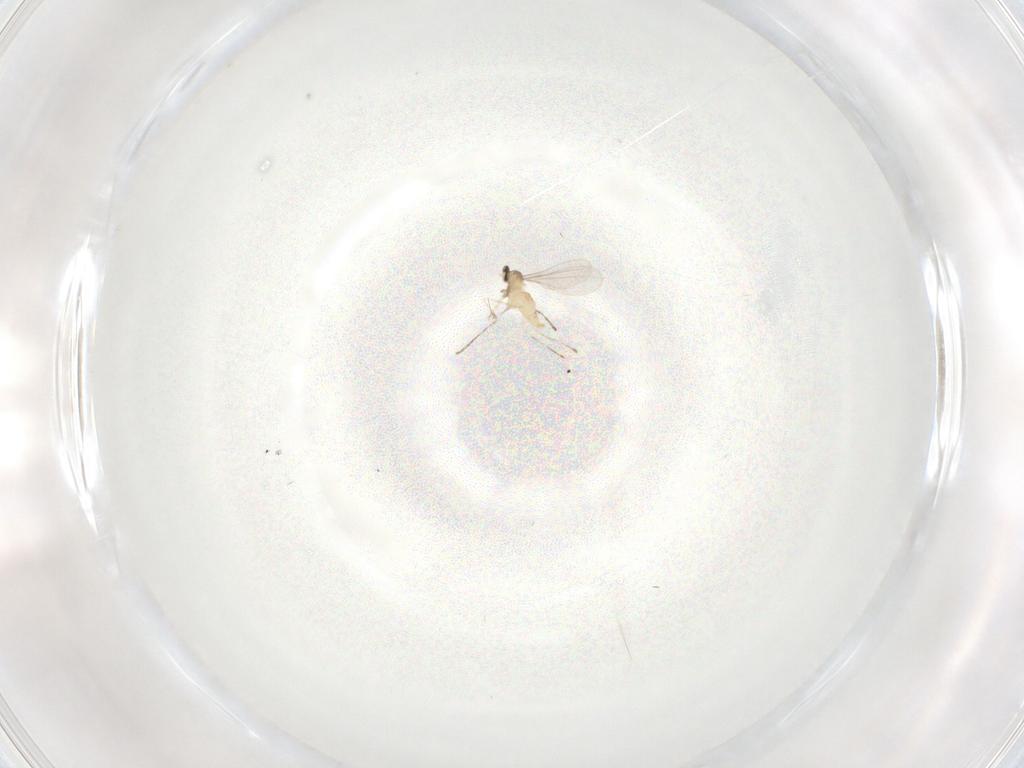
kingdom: Animalia
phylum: Arthropoda
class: Insecta
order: Diptera
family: Cecidomyiidae
